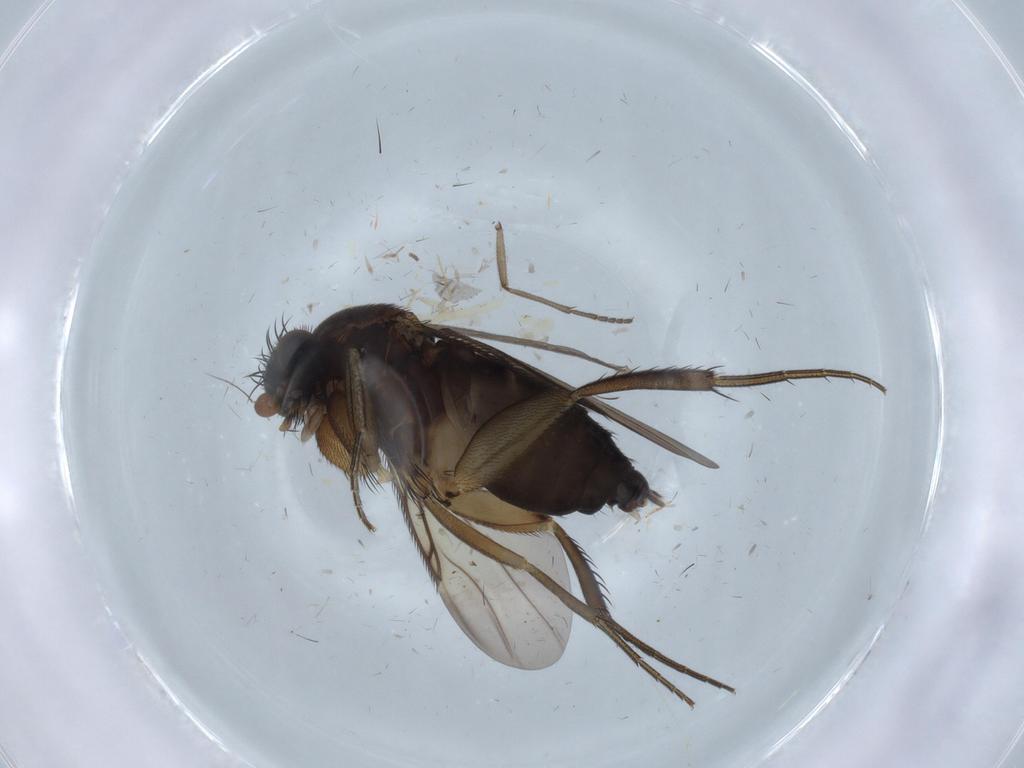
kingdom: Animalia
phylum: Arthropoda
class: Insecta
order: Diptera
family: Phoridae
